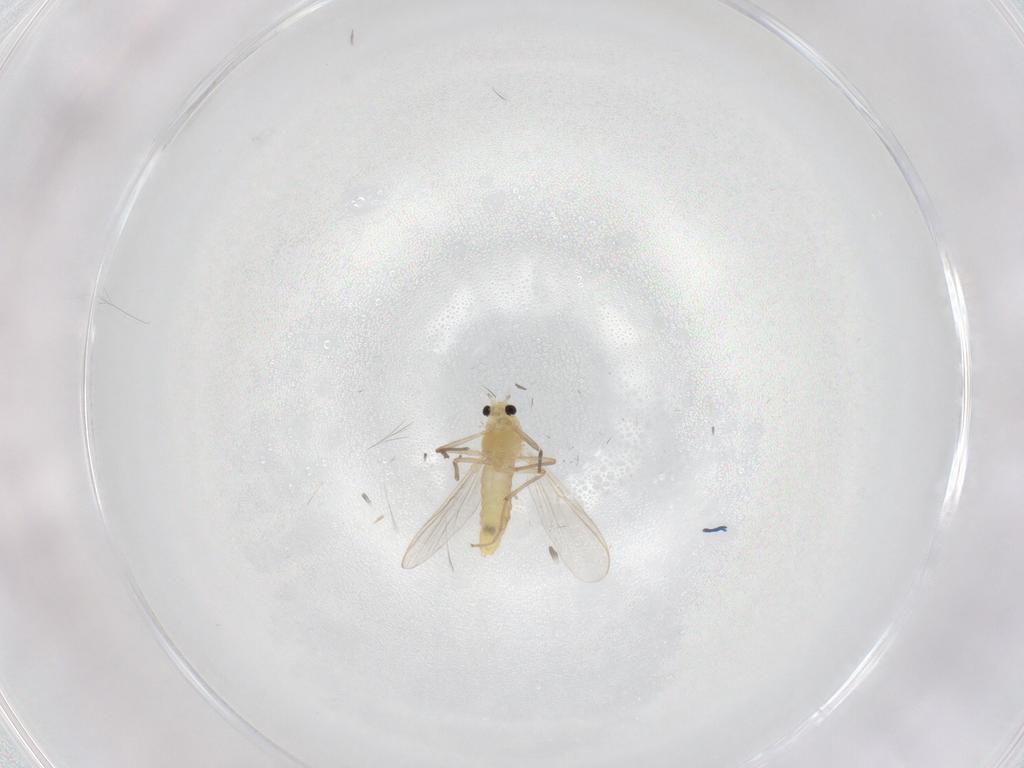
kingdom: Animalia
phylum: Arthropoda
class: Insecta
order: Diptera
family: Chironomidae
